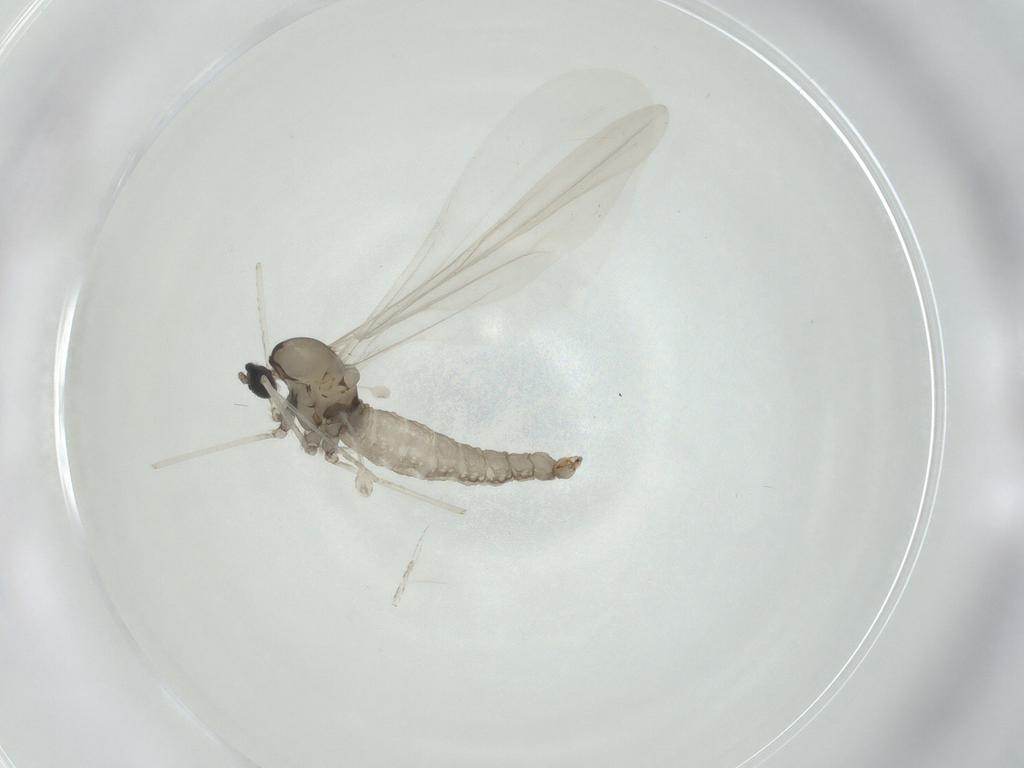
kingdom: Animalia
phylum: Arthropoda
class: Insecta
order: Diptera
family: Cecidomyiidae
